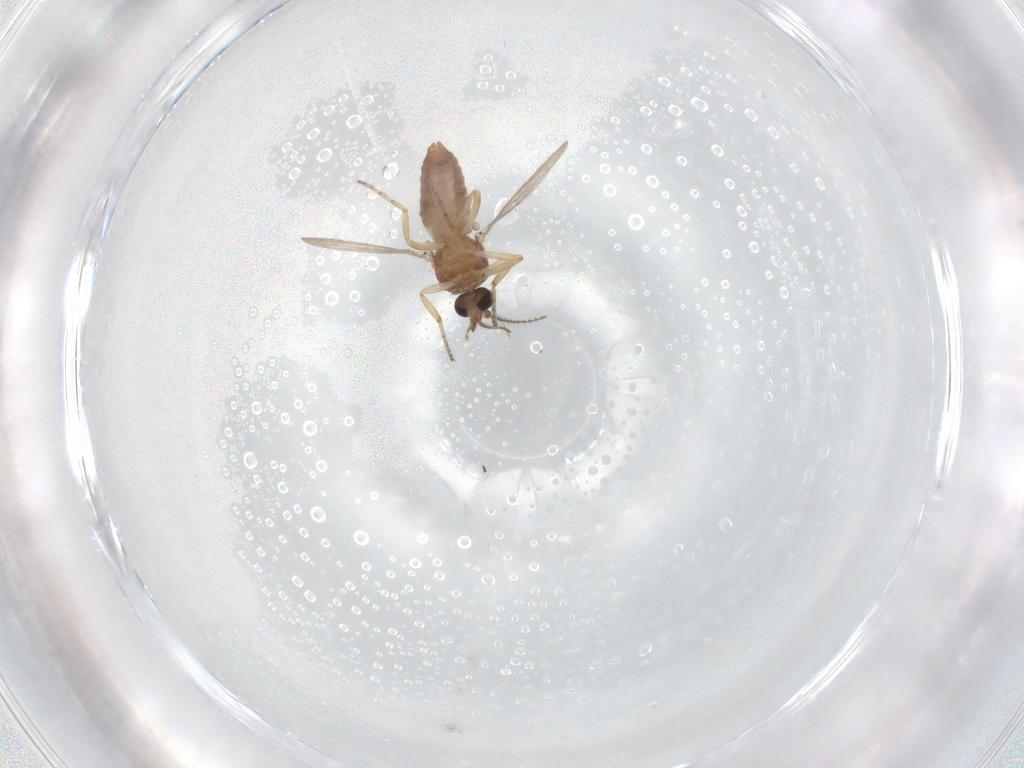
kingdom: Animalia
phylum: Arthropoda
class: Insecta
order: Diptera
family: Ceratopogonidae
